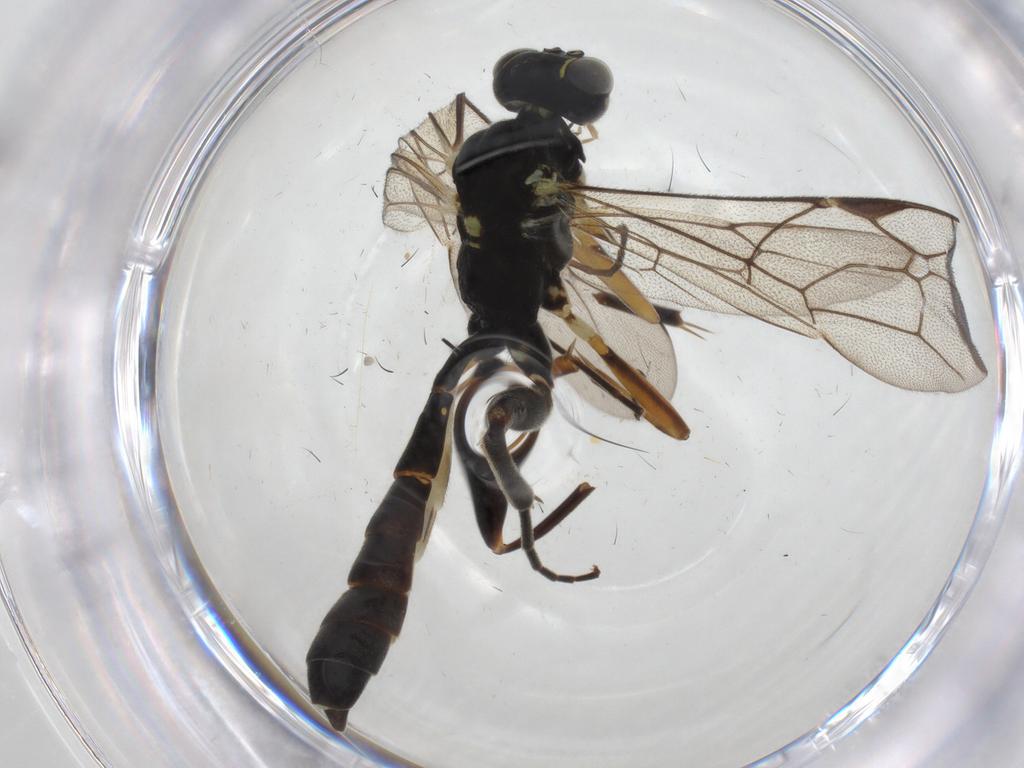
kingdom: Animalia
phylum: Arthropoda
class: Insecta
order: Hymenoptera
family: Ichneumonidae
